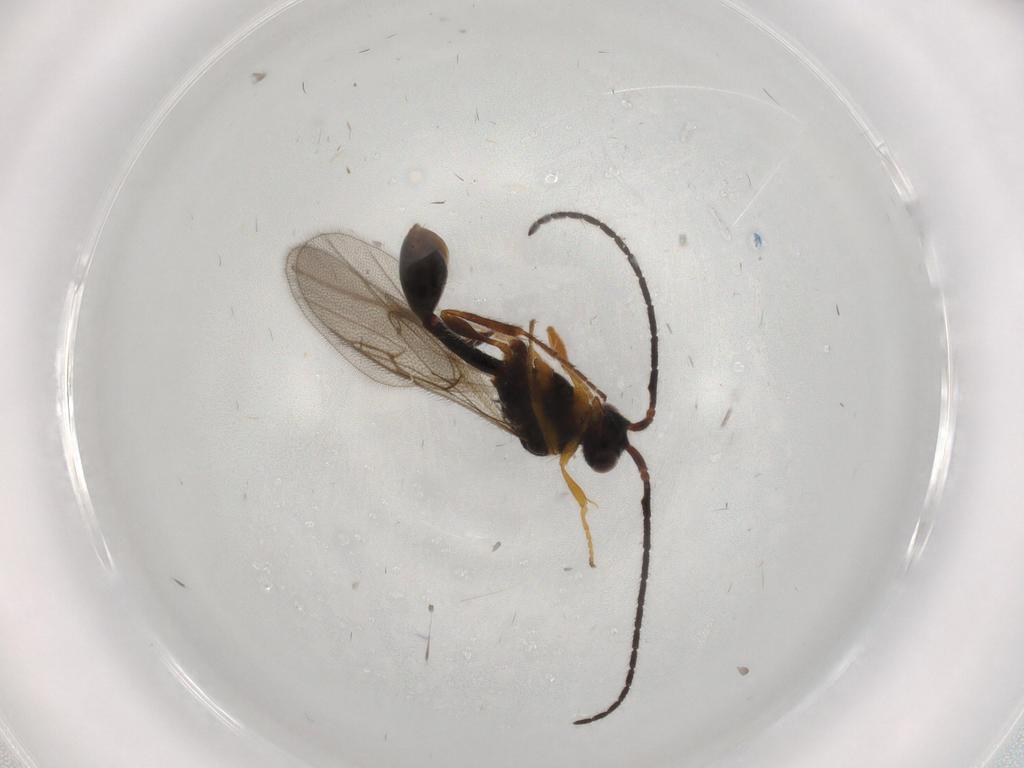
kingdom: Animalia
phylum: Arthropoda
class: Insecta
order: Hymenoptera
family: Diapriidae
